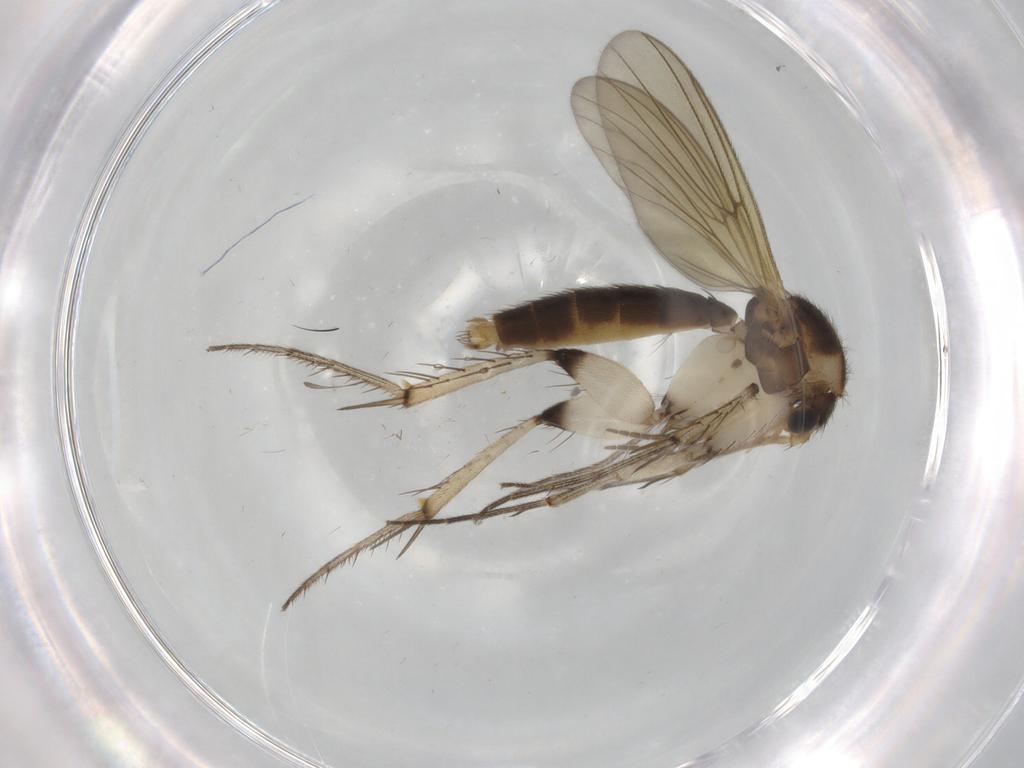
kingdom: Animalia
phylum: Arthropoda
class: Insecta
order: Diptera
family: Mycetophilidae
